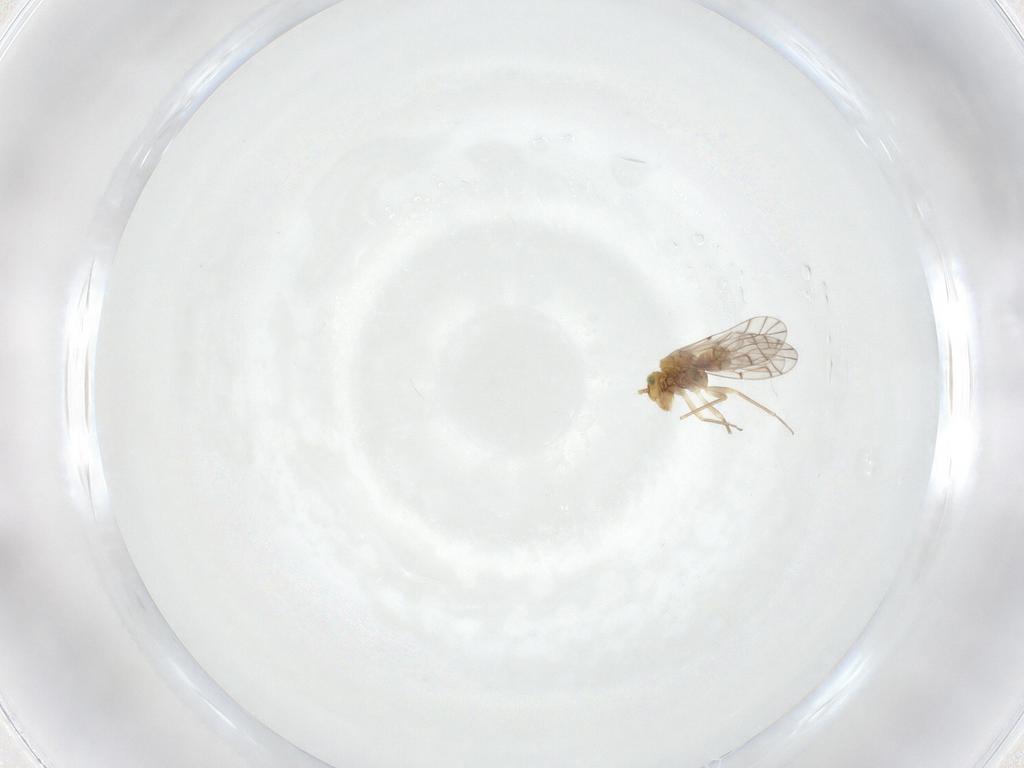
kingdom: Animalia
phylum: Arthropoda
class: Insecta
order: Psocodea
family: Lachesillidae
